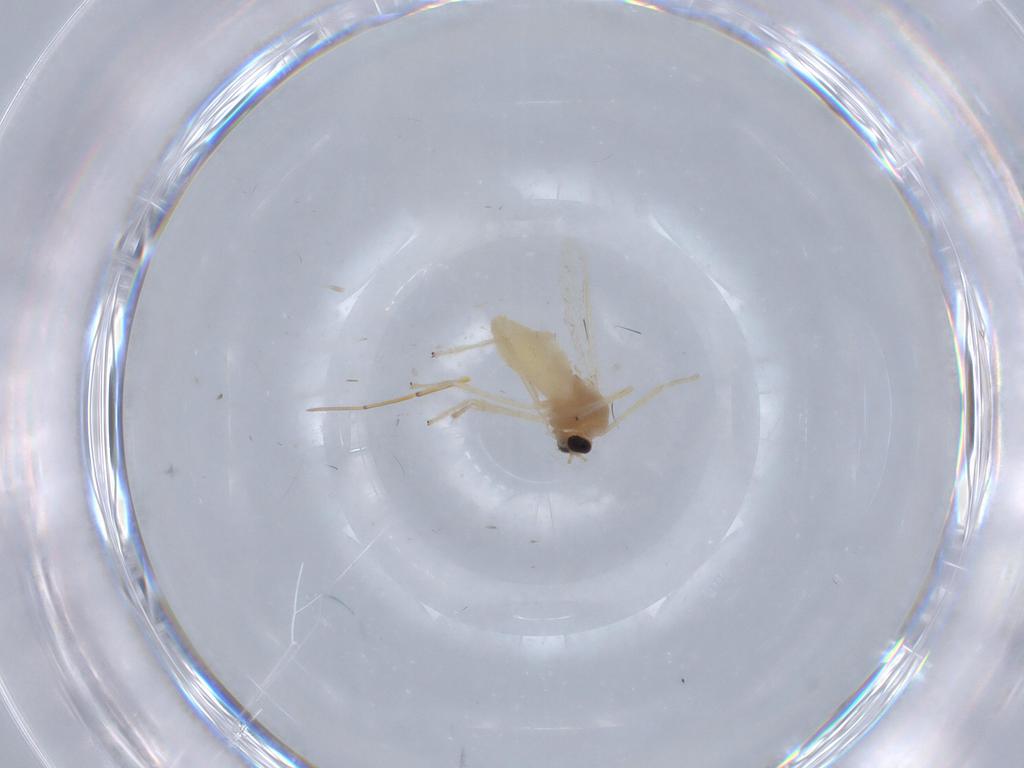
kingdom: Animalia
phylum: Arthropoda
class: Insecta
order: Diptera
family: Chironomidae
